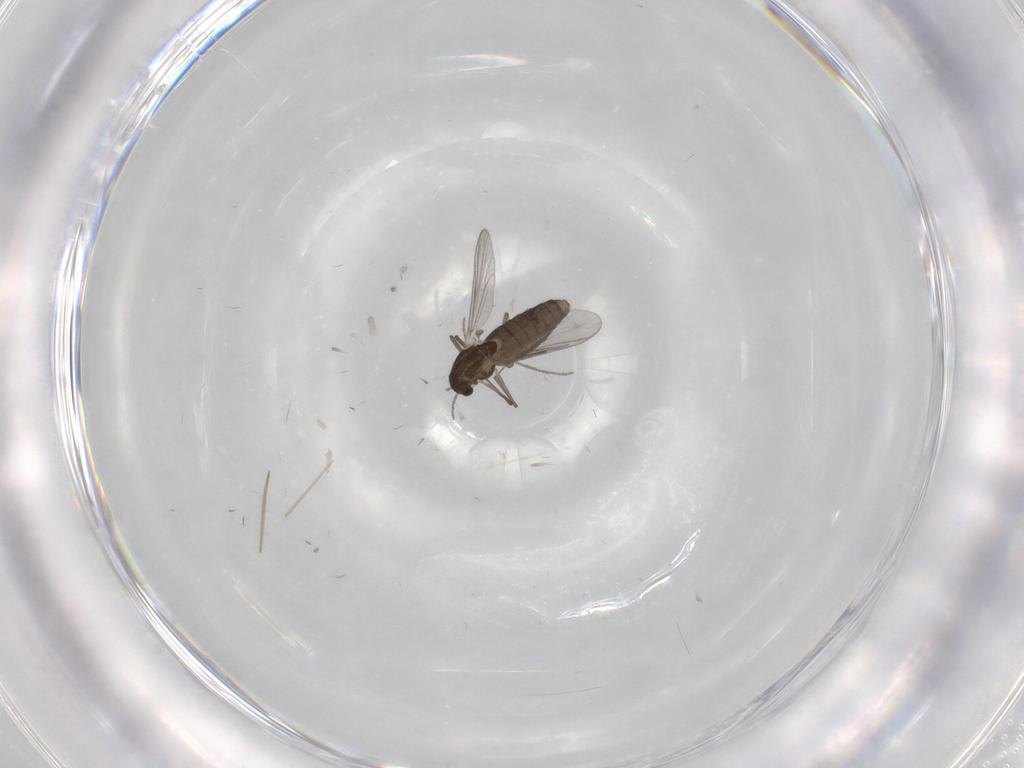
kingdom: Animalia
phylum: Arthropoda
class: Insecta
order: Diptera
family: Chironomidae
